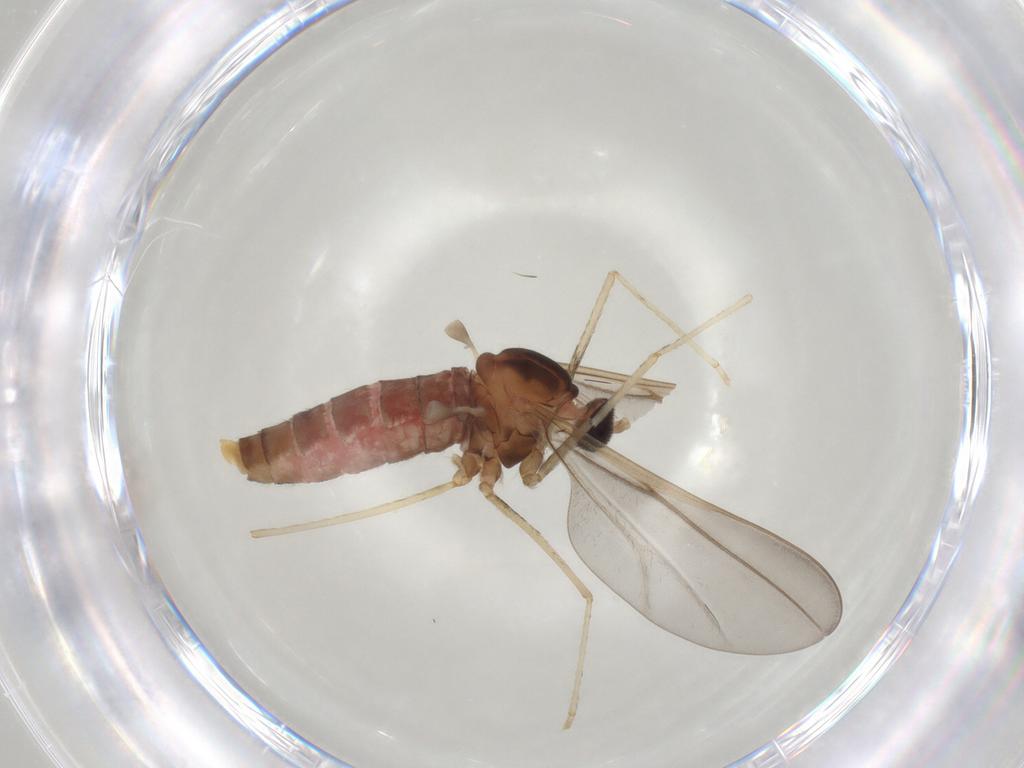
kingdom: Animalia
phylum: Arthropoda
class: Insecta
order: Diptera
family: Cecidomyiidae
